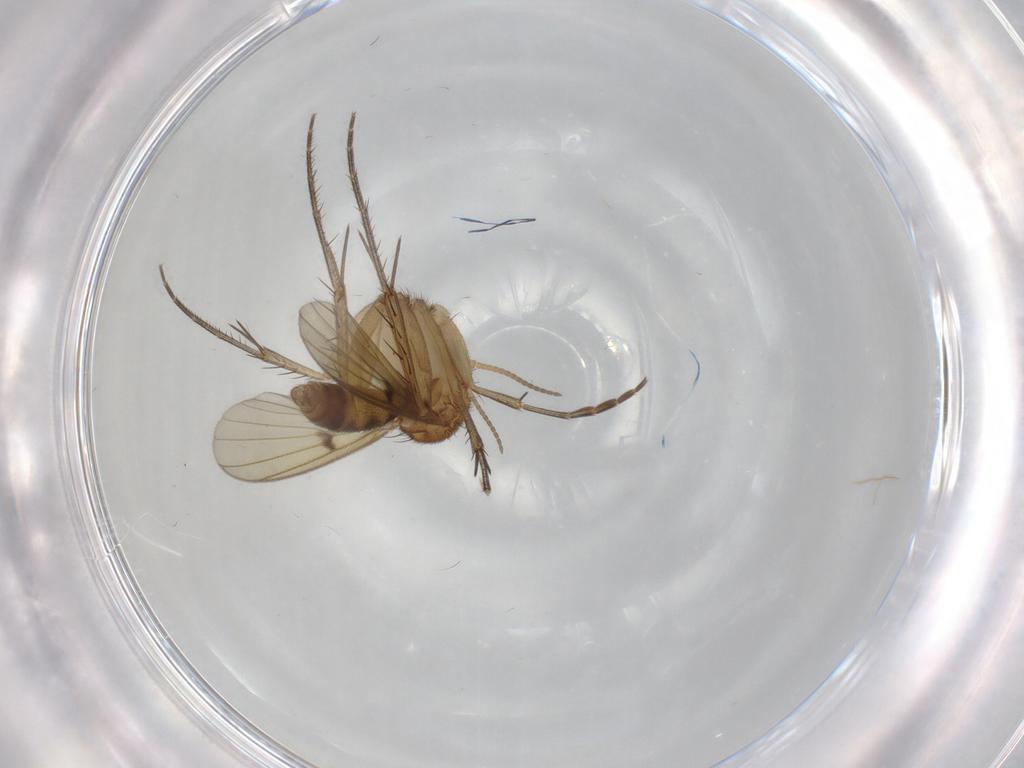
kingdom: Animalia
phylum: Arthropoda
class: Insecta
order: Diptera
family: Mycetophilidae
